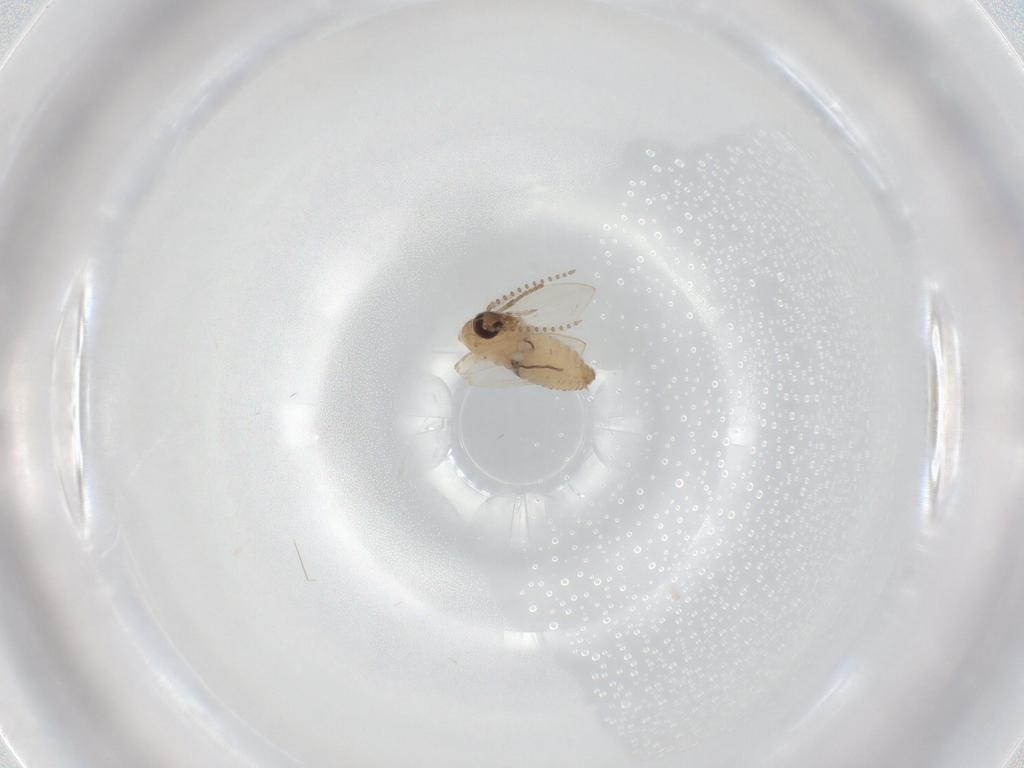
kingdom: Animalia
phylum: Arthropoda
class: Insecta
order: Diptera
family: Psychodidae
